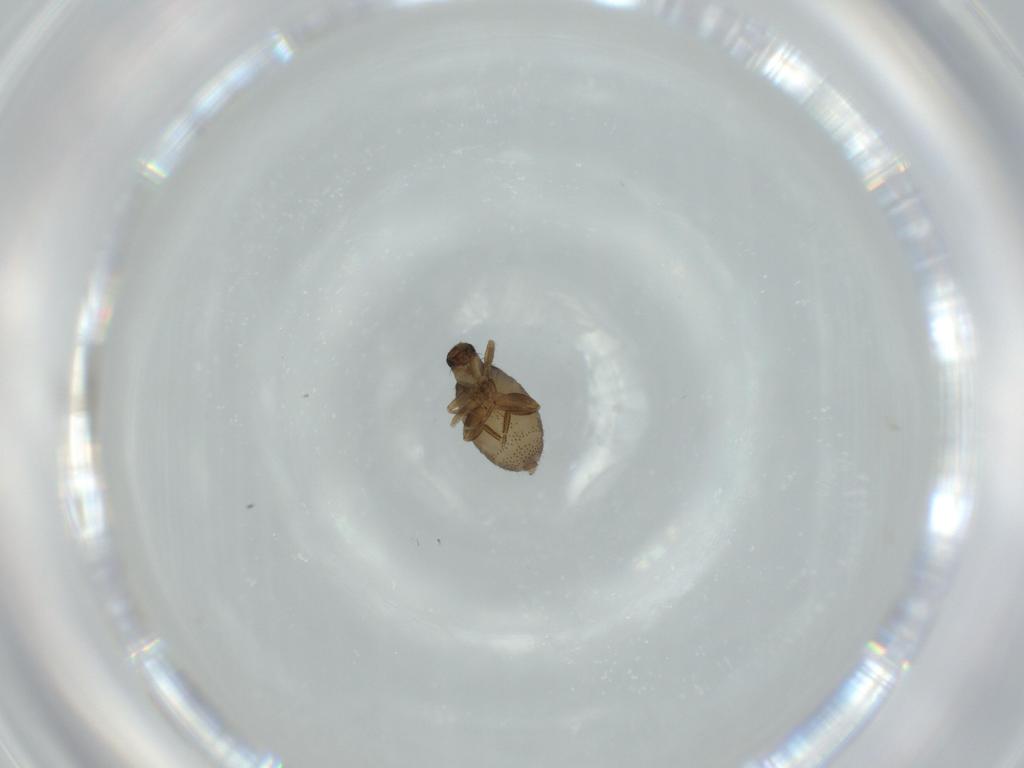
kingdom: Animalia
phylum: Arthropoda
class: Insecta
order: Diptera
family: Phoridae
